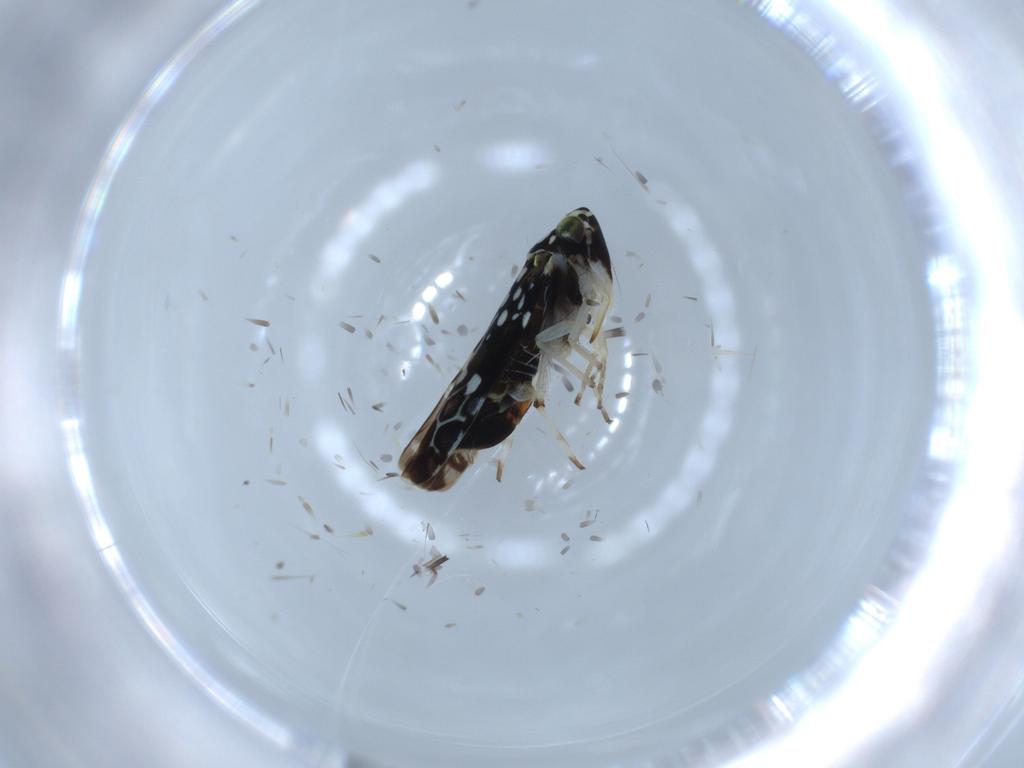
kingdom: Animalia
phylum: Arthropoda
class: Insecta
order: Hemiptera
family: Cicadellidae
